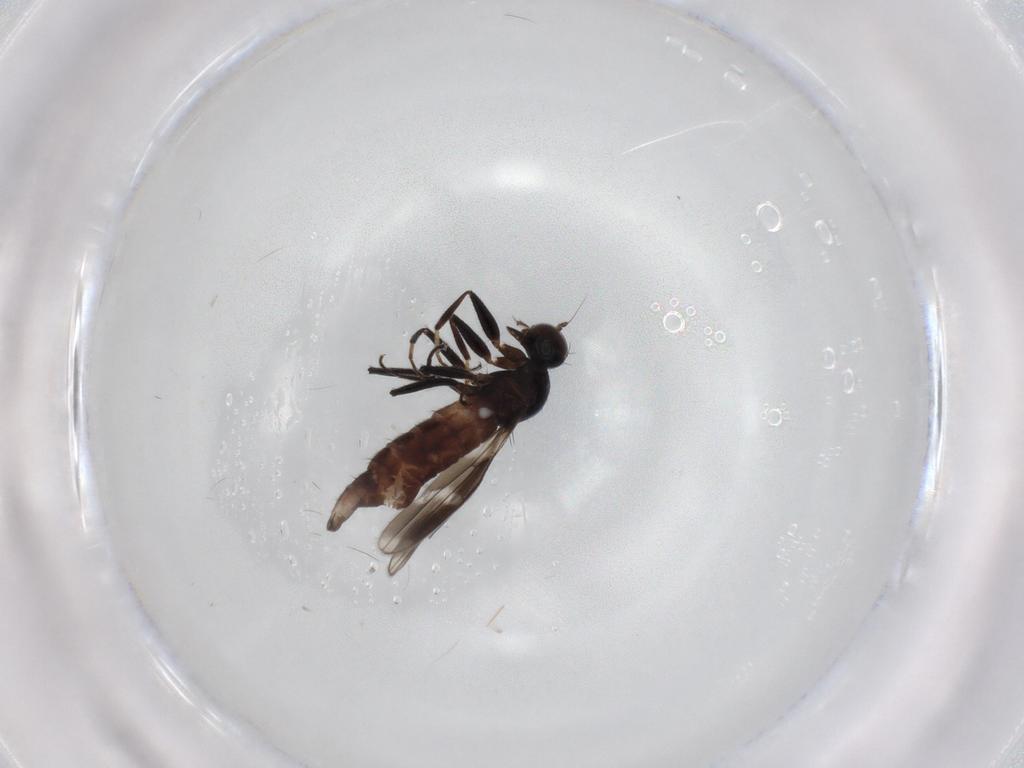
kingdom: Animalia
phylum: Arthropoda
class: Insecta
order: Diptera
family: Hybotidae
